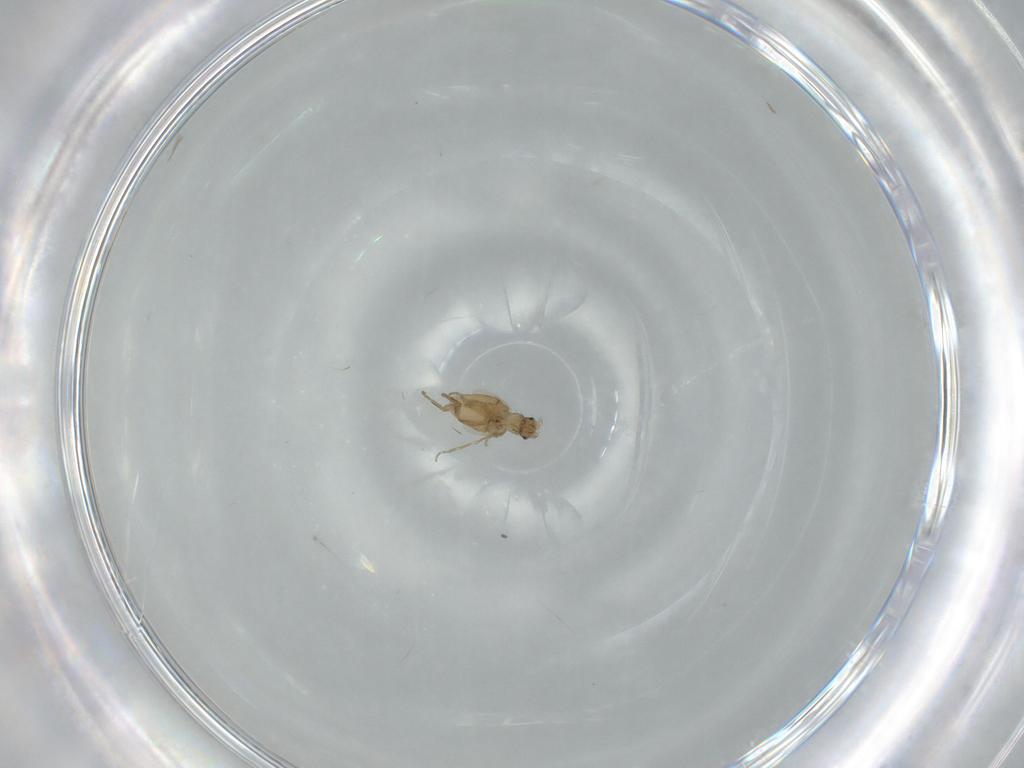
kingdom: Animalia
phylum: Arthropoda
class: Insecta
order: Diptera
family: Phoridae
